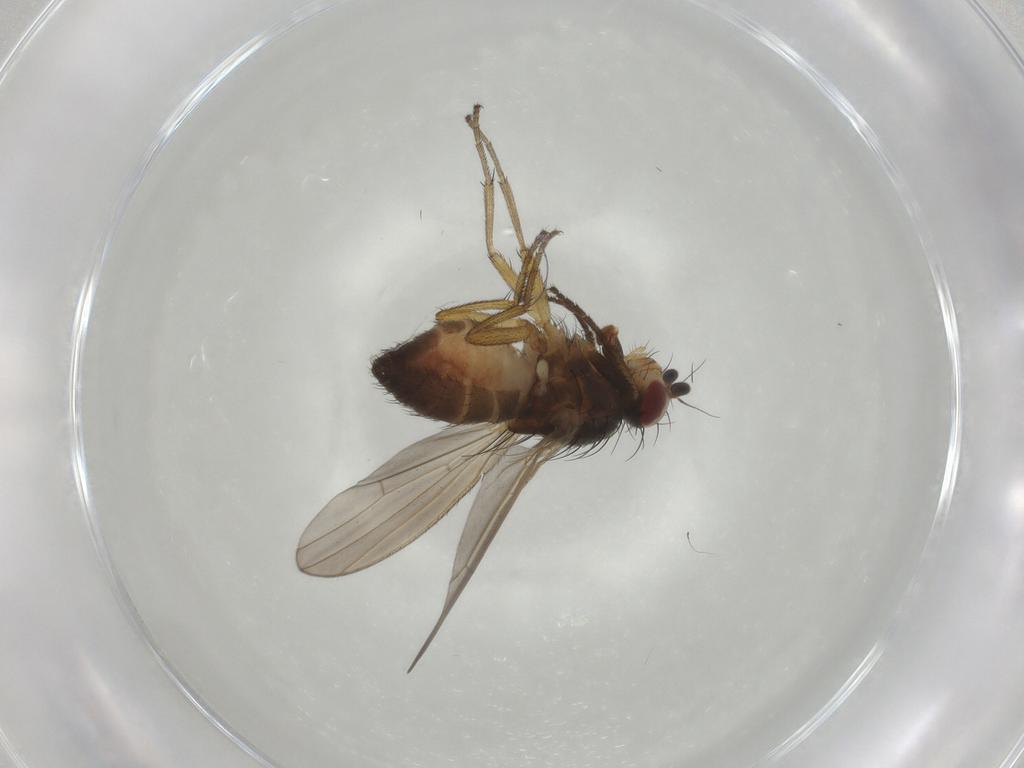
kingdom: Animalia
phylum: Arthropoda
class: Insecta
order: Diptera
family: Heleomyzidae
